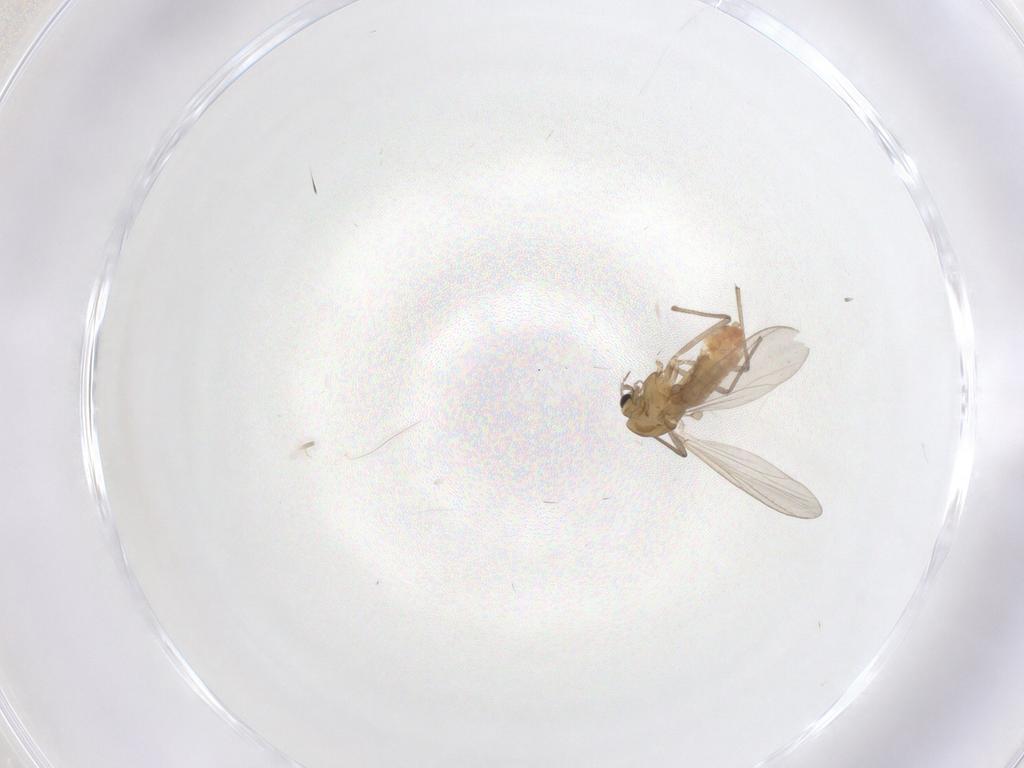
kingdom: Animalia
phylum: Arthropoda
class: Insecta
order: Diptera
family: Chironomidae
